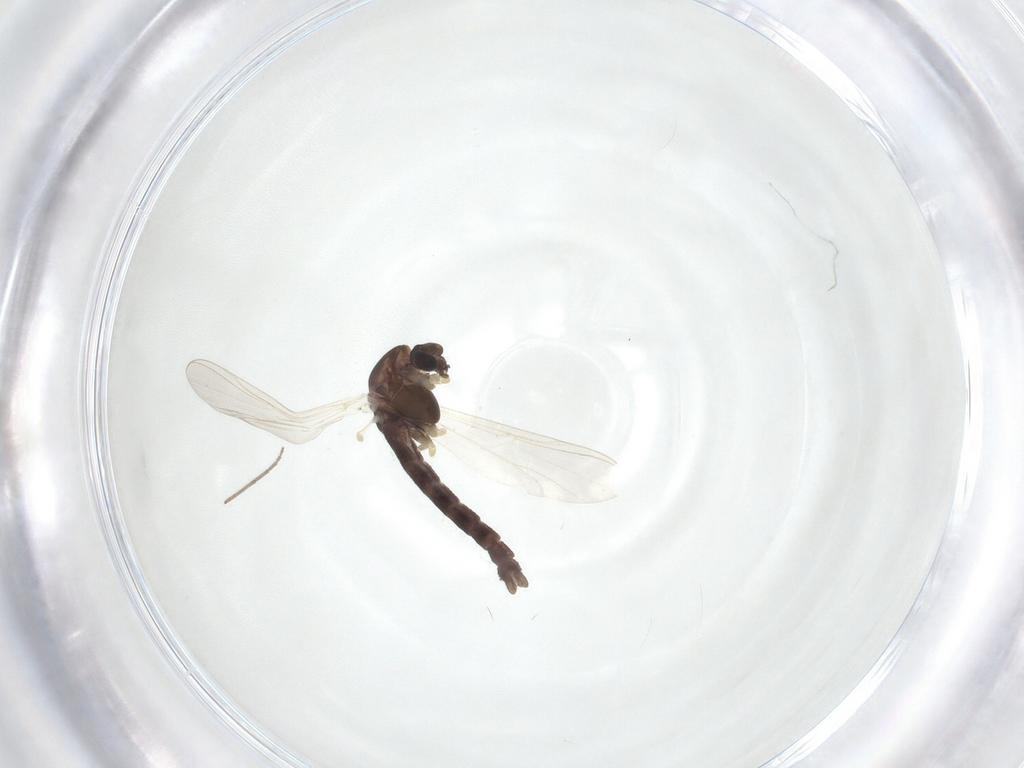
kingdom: Animalia
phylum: Arthropoda
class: Insecta
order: Diptera
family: Chironomidae
